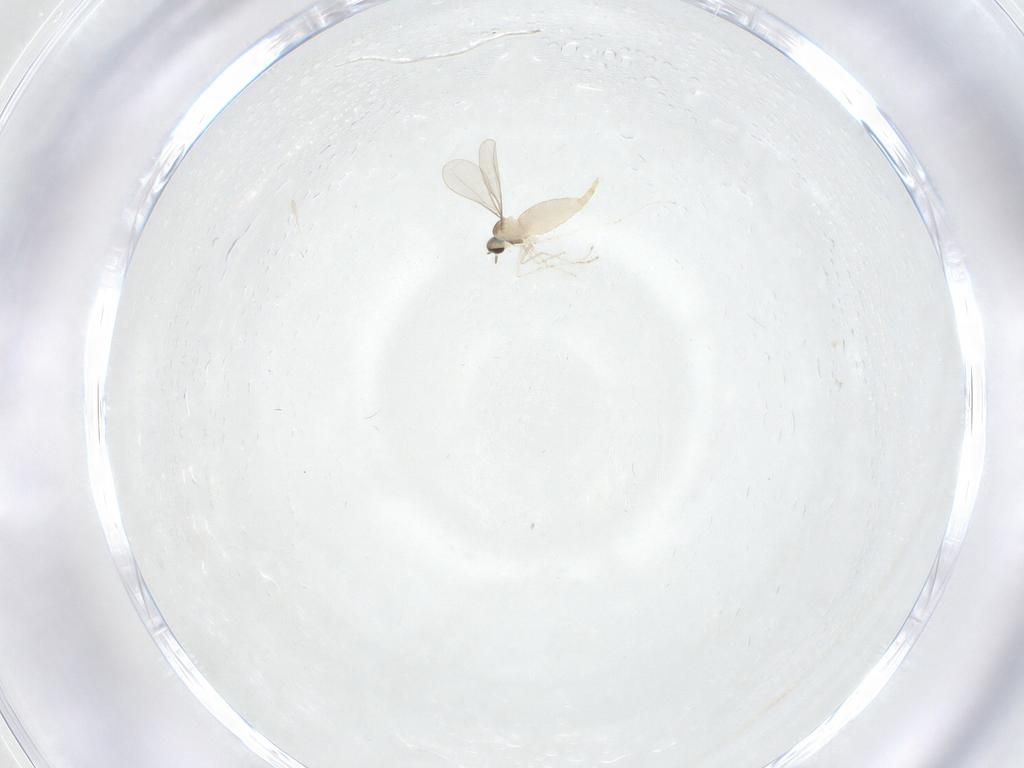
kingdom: Animalia
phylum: Arthropoda
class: Insecta
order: Diptera
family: Cecidomyiidae
